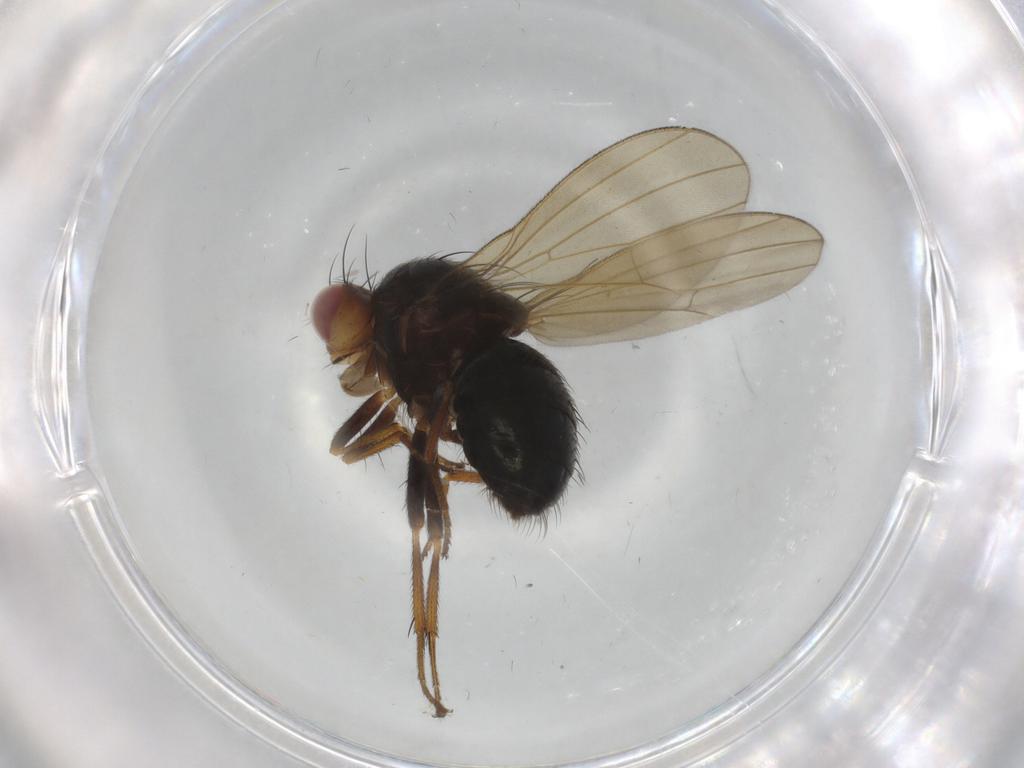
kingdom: Animalia
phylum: Arthropoda
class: Insecta
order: Diptera
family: Lauxaniidae
